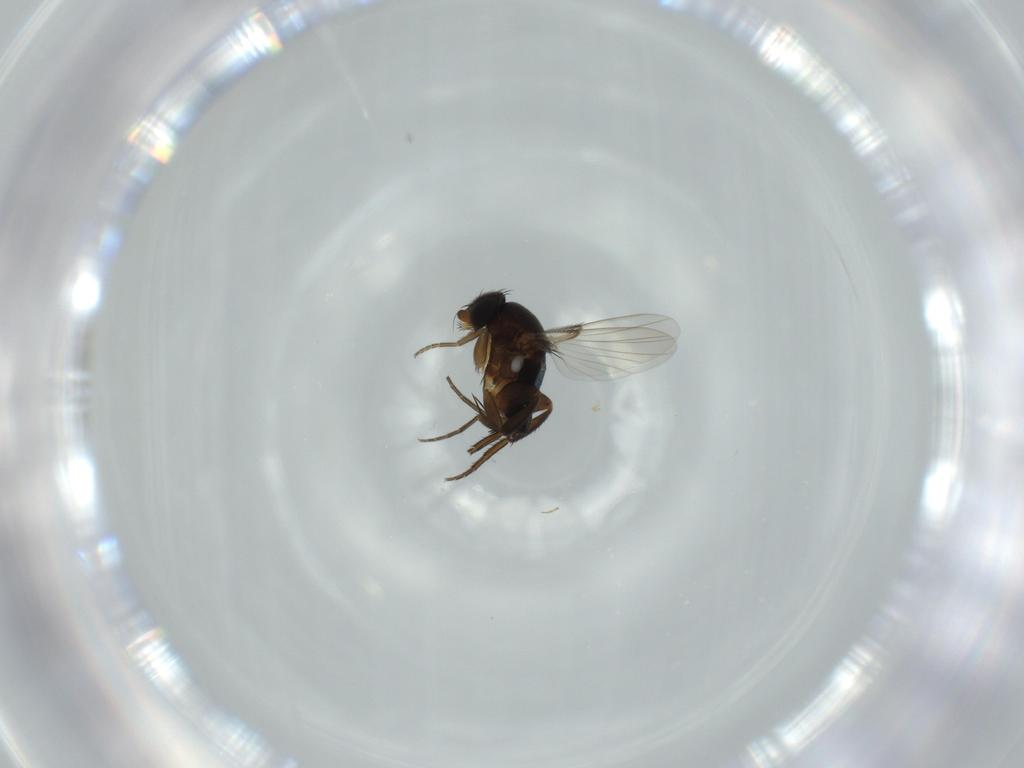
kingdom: Animalia
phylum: Arthropoda
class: Insecta
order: Diptera
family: Phoridae
